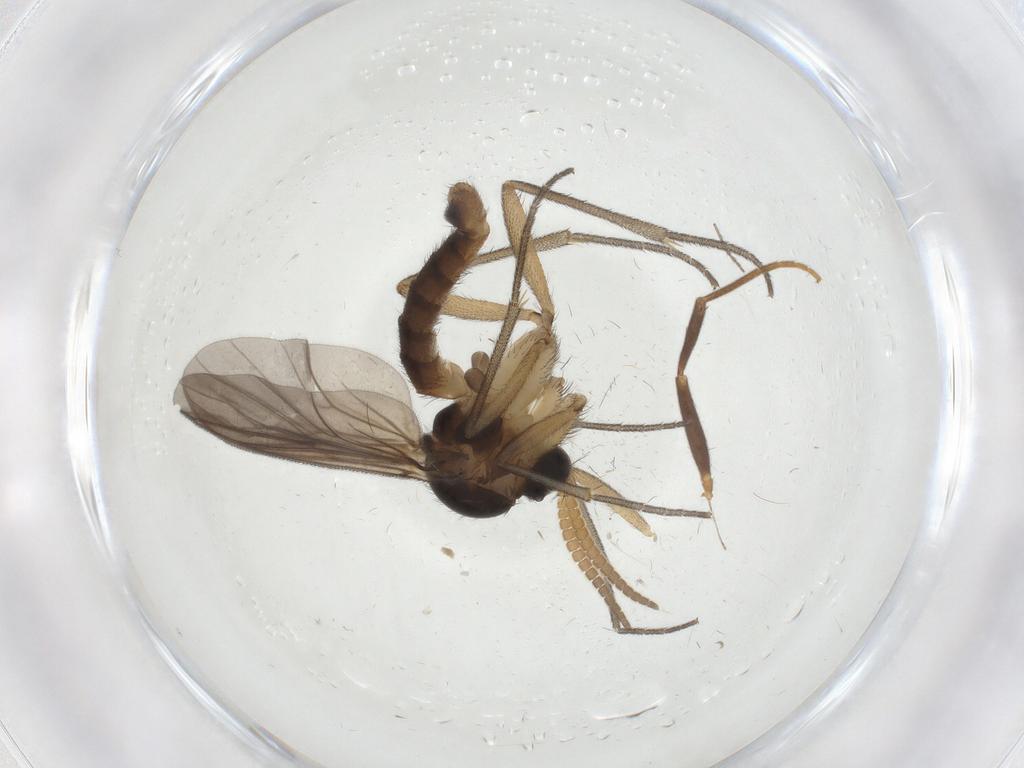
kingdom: Animalia
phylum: Arthropoda
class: Insecta
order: Diptera
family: Mycetophilidae
